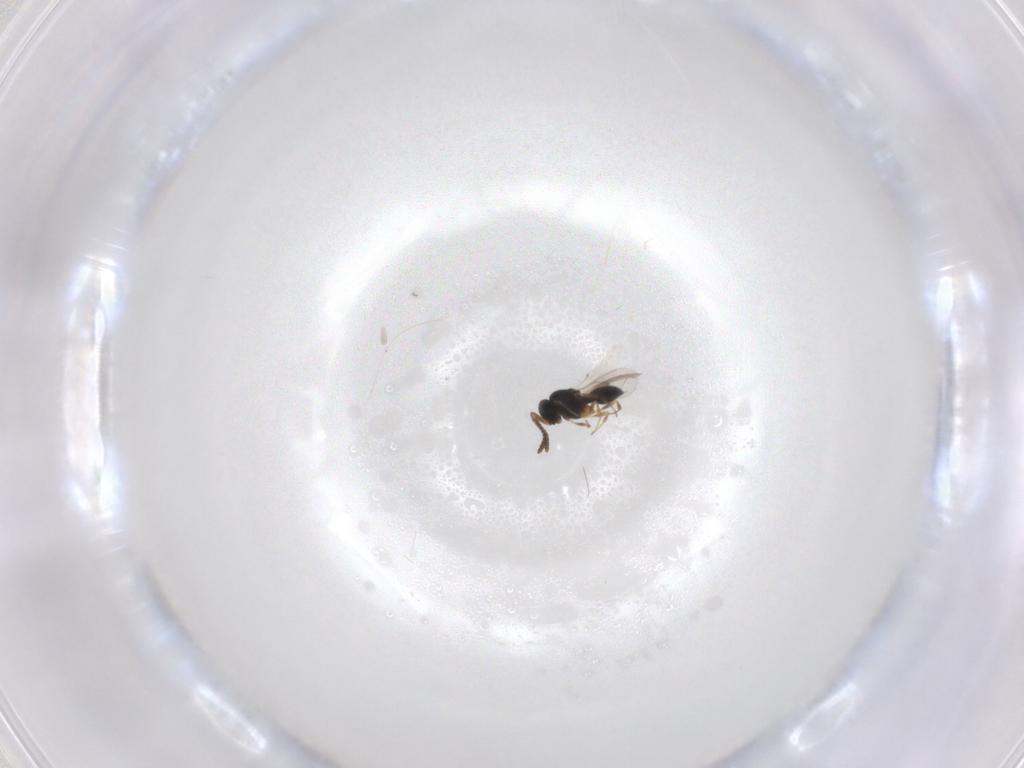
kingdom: Animalia
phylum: Arthropoda
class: Insecta
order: Hymenoptera
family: Scelionidae
